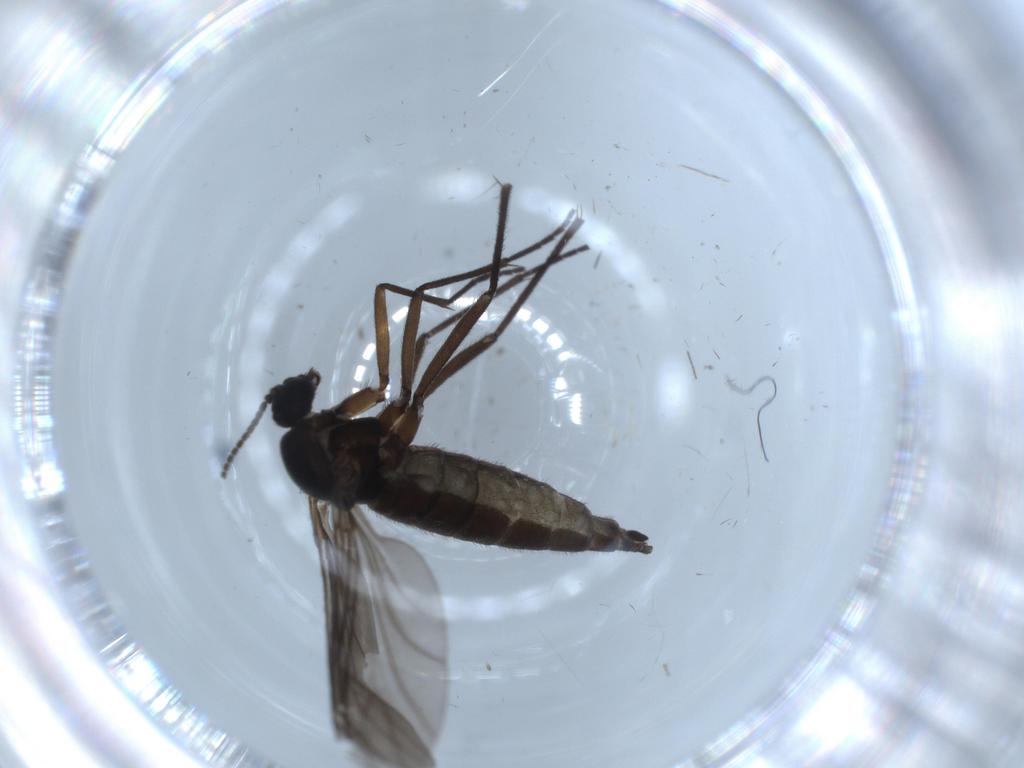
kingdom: Animalia
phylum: Arthropoda
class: Insecta
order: Diptera
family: Sciaridae
